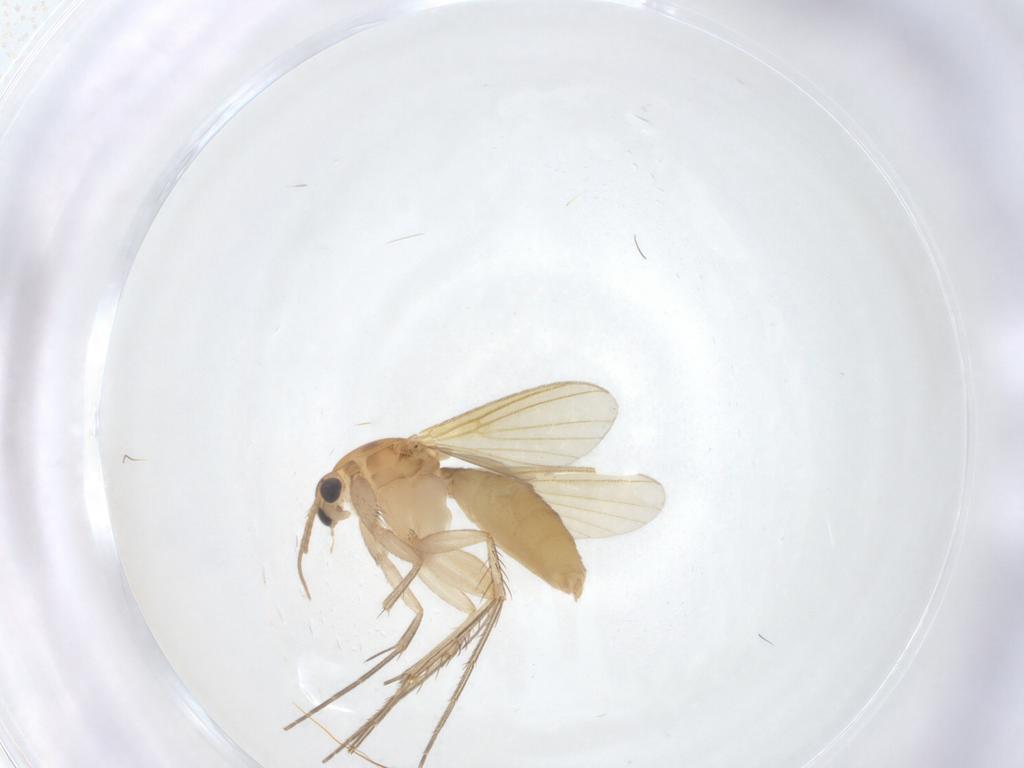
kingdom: Animalia
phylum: Arthropoda
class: Insecta
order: Diptera
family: Mycetophilidae
